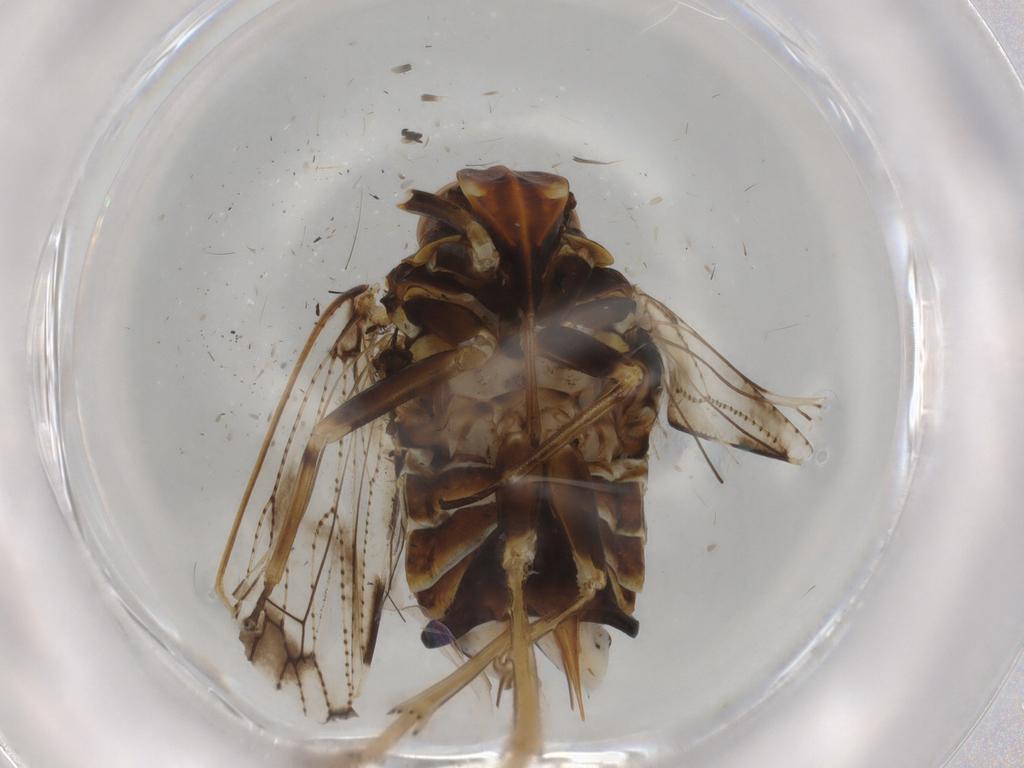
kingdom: Animalia
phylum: Arthropoda
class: Insecta
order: Hemiptera
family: Cixiidae
